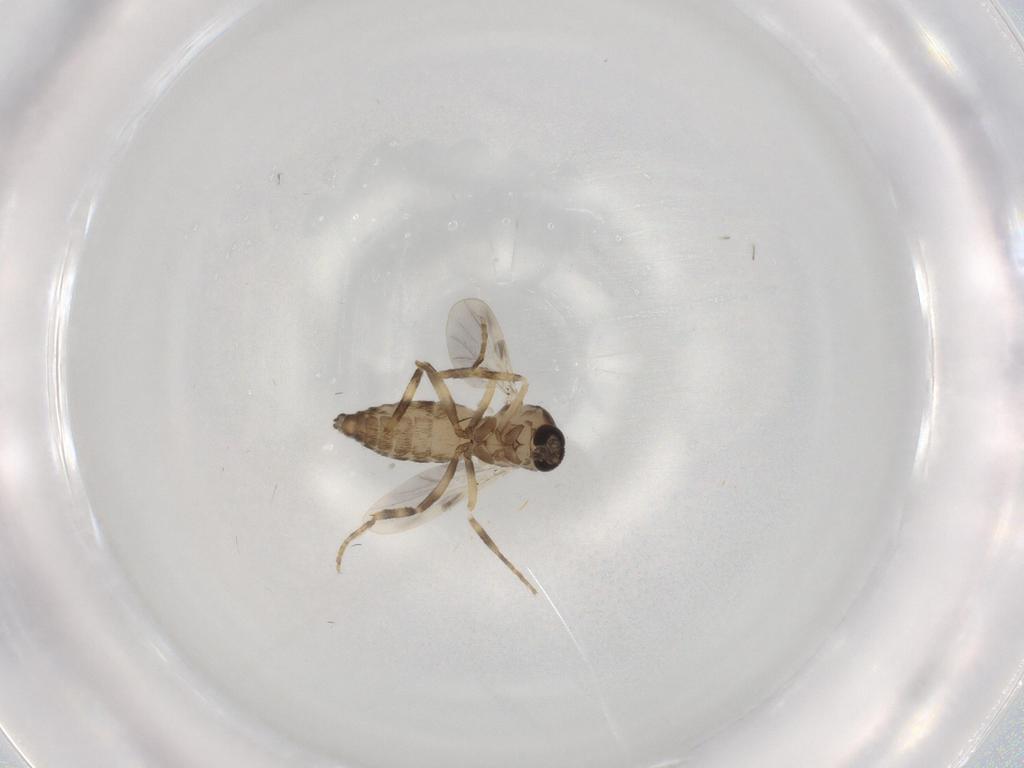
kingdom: Animalia
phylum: Arthropoda
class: Insecta
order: Diptera
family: Ceratopogonidae
